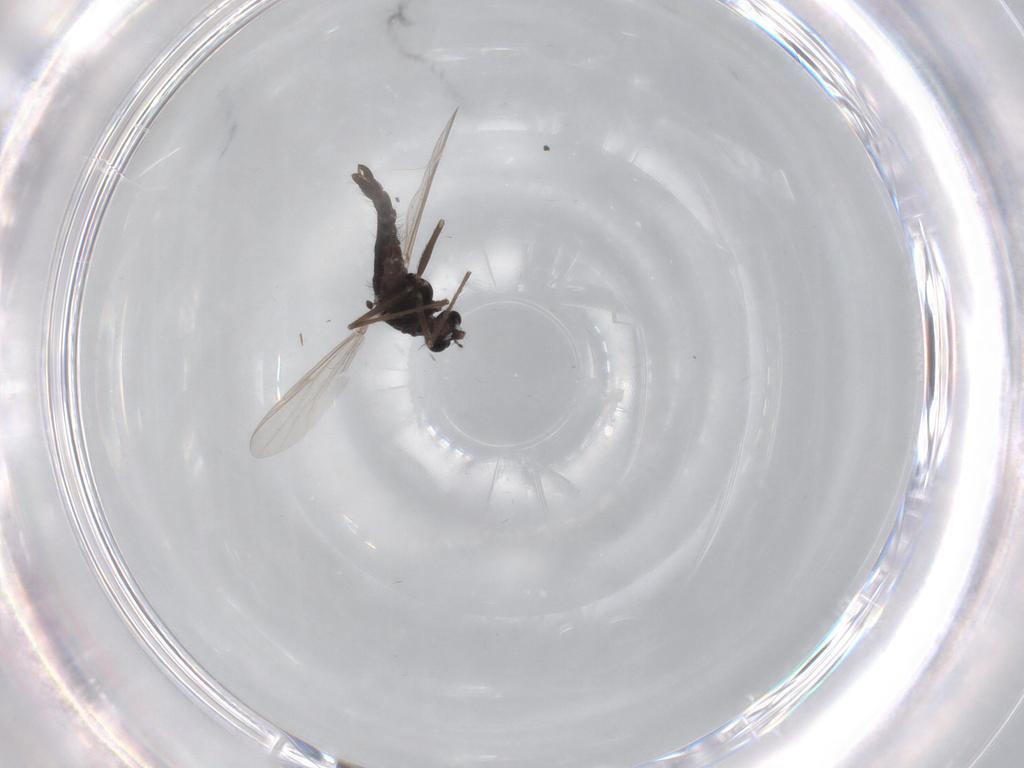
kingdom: Animalia
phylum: Arthropoda
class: Insecta
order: Diptera
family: Chironomidae
